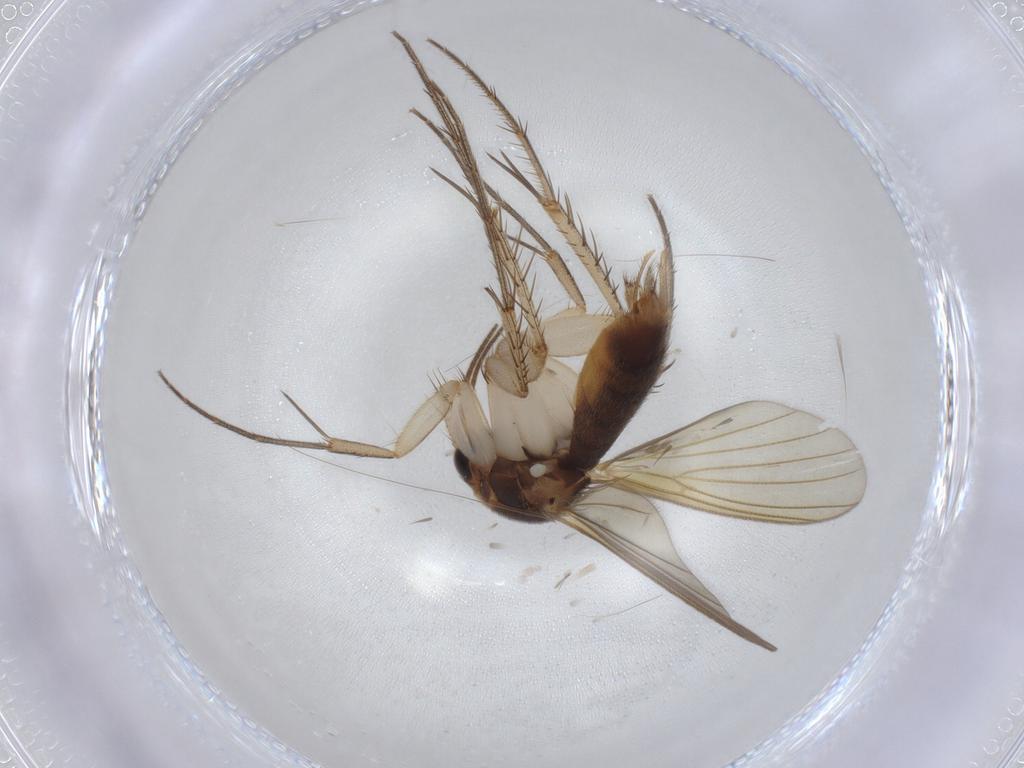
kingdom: Animalia
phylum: Arthropoda
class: Insecta
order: Diptera
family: Mycetophilidae
